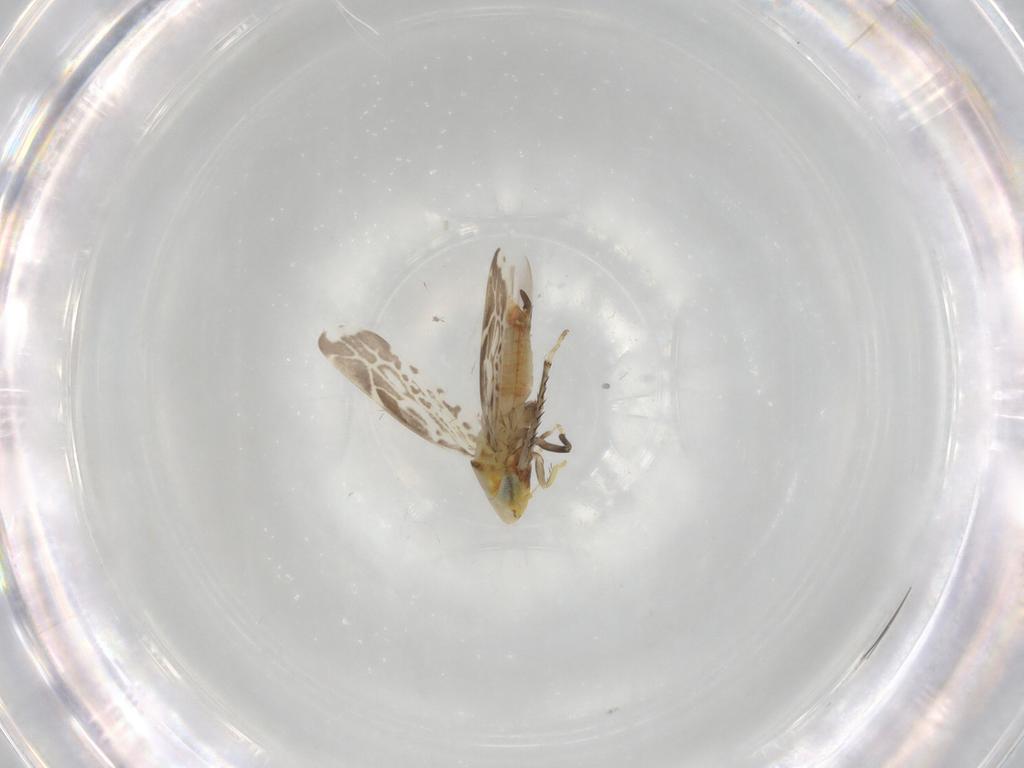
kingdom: Animalia
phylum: Arthropoda
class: Insecta
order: Hemiptera
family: Cicadellidae
